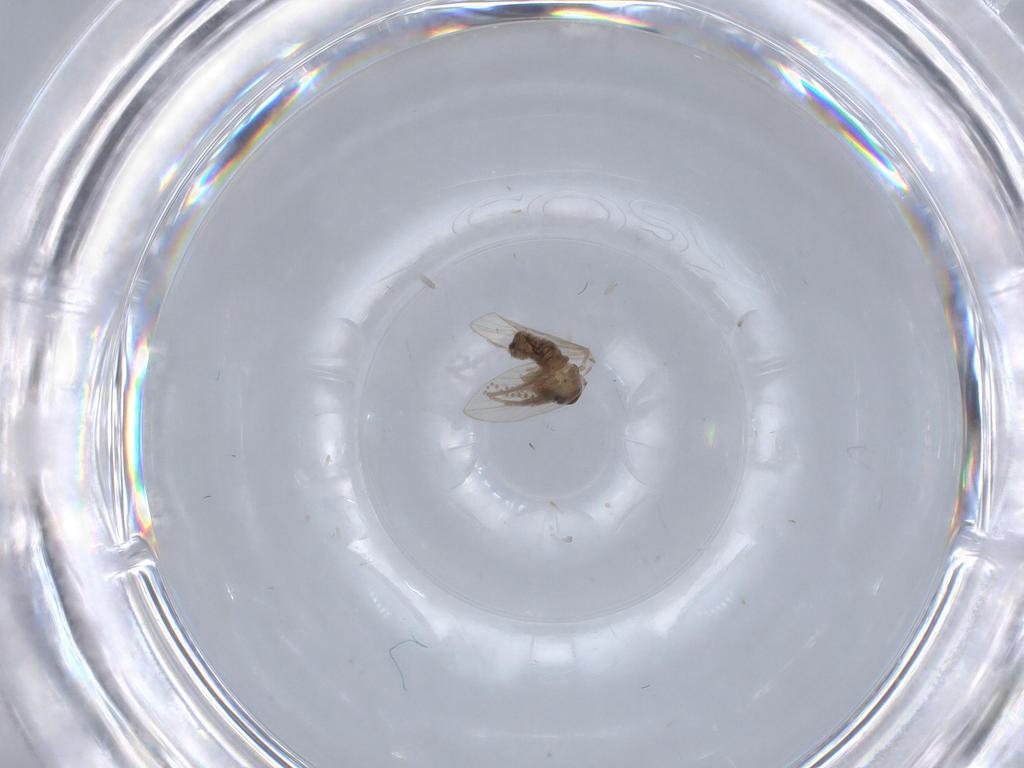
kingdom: Animalia
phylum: Arthropoda
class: Insecta
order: Diptera
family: Psychodidae
